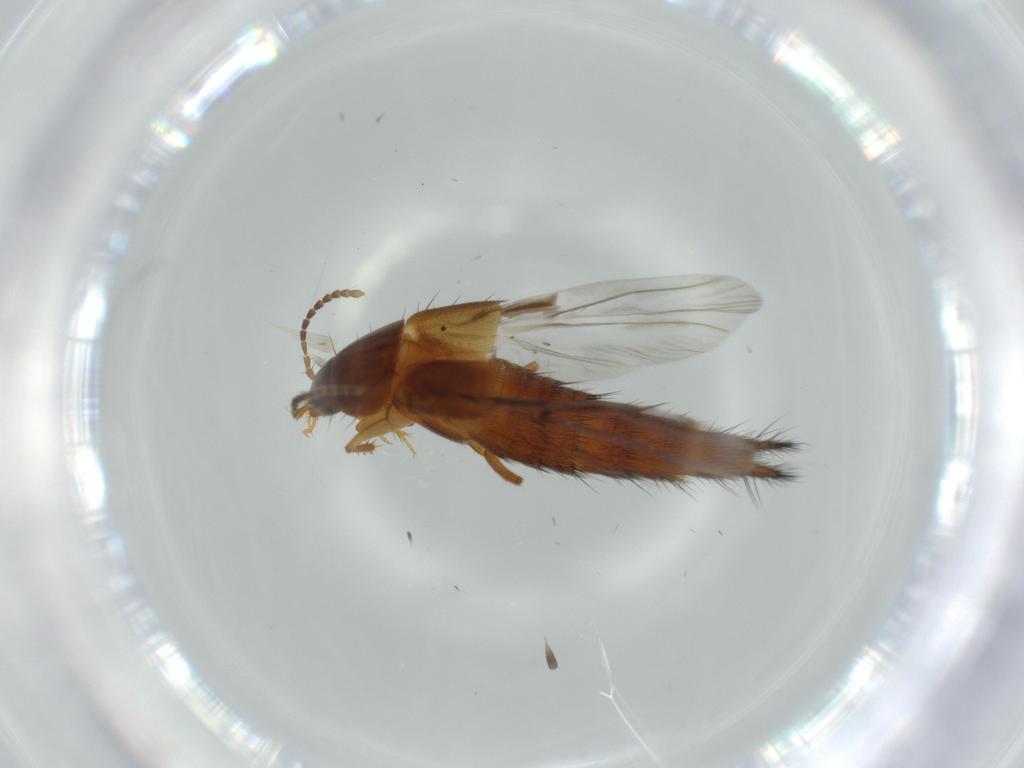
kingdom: Animalia
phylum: Arthropoda
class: Insecta
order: Coleoptera
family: Staphylinidae
